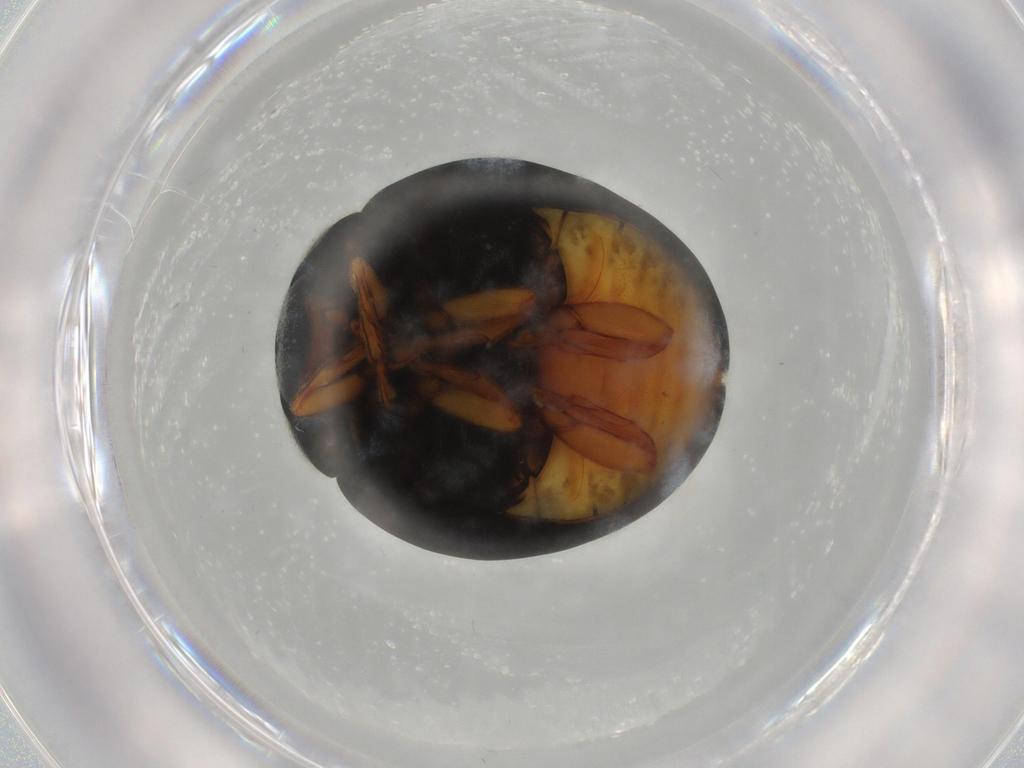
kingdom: Animalia
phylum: Arthropoda
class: Insecta
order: Coleoptera
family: Coccinellidae
